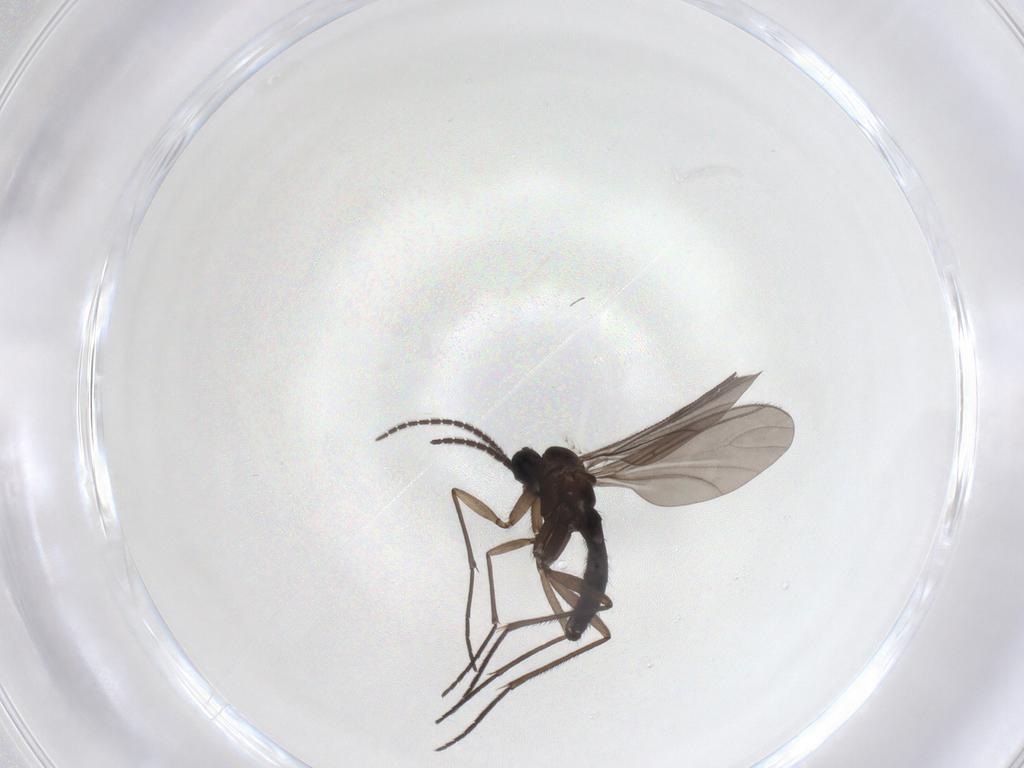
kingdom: Animalia
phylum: Arthropoda
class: Insecta
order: Diptera
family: Sciaridae
